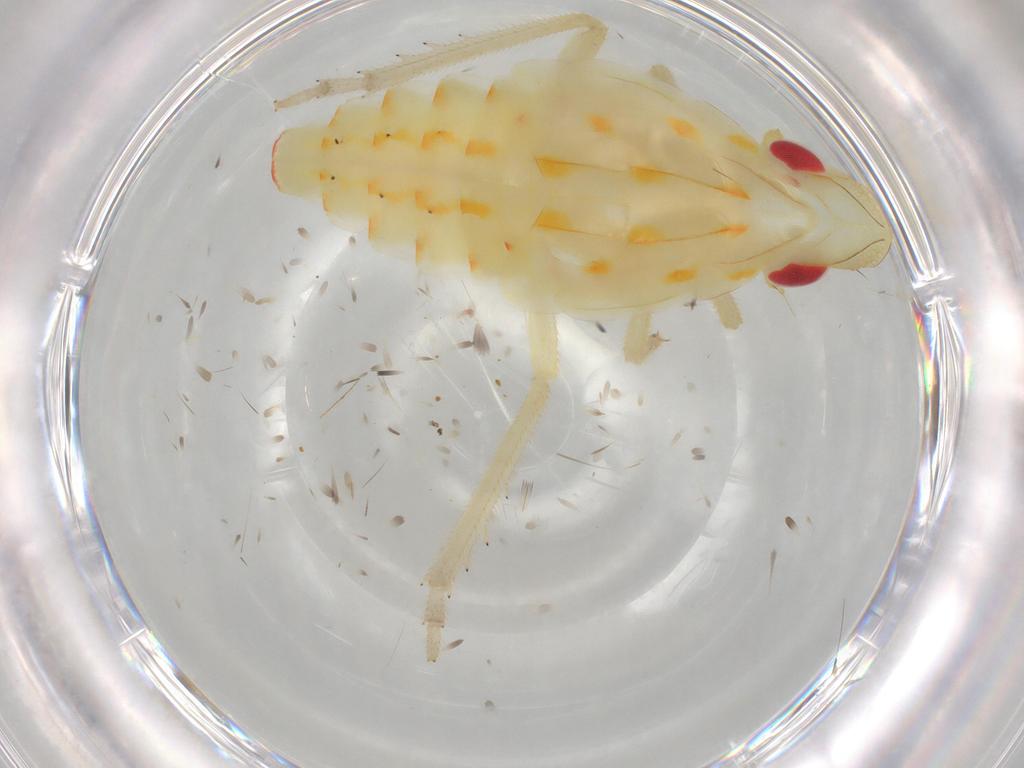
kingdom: Animalia
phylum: Arthropoda
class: Insecta
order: Hemiptera
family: Tropiduchidae
